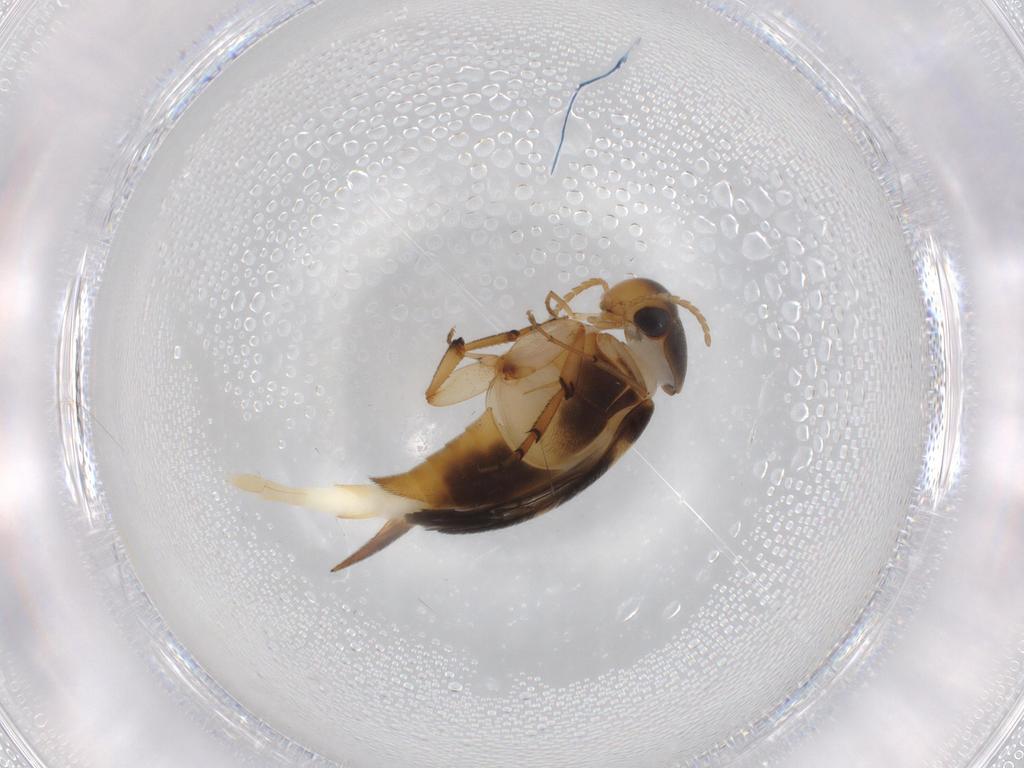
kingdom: Animalia
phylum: Arthropoda
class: Insecta
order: Coleoptera
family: Mordellidae
